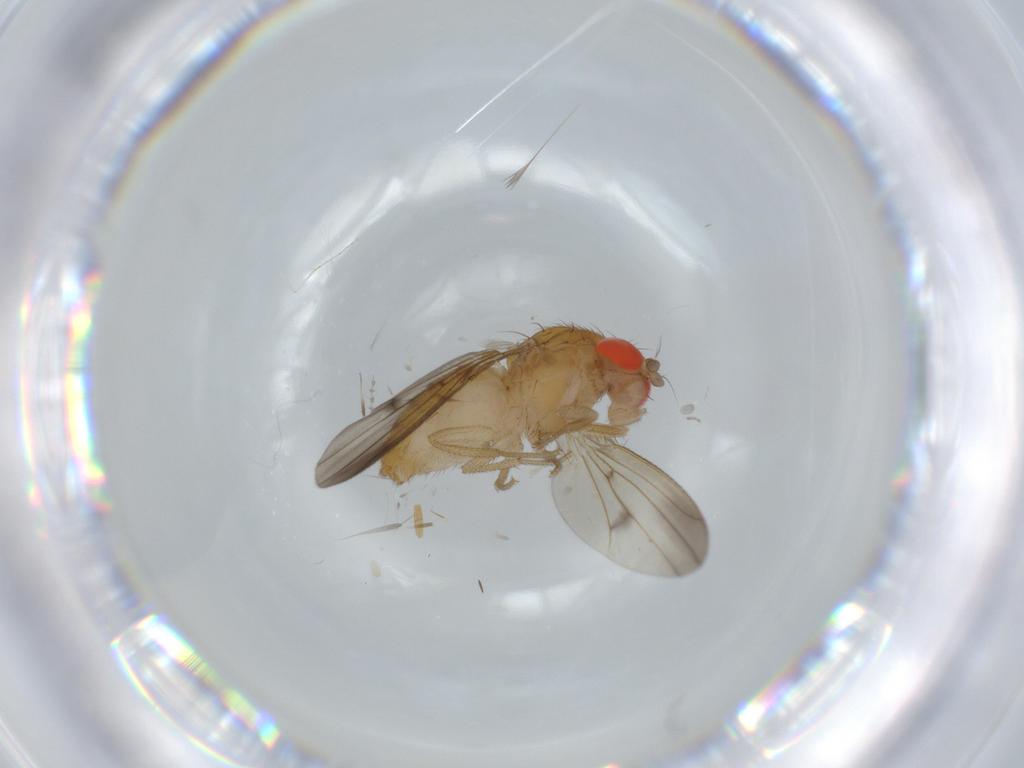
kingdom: Animalia
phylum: Arthropoda
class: Insecta
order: Diptera
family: Drosophilidae
